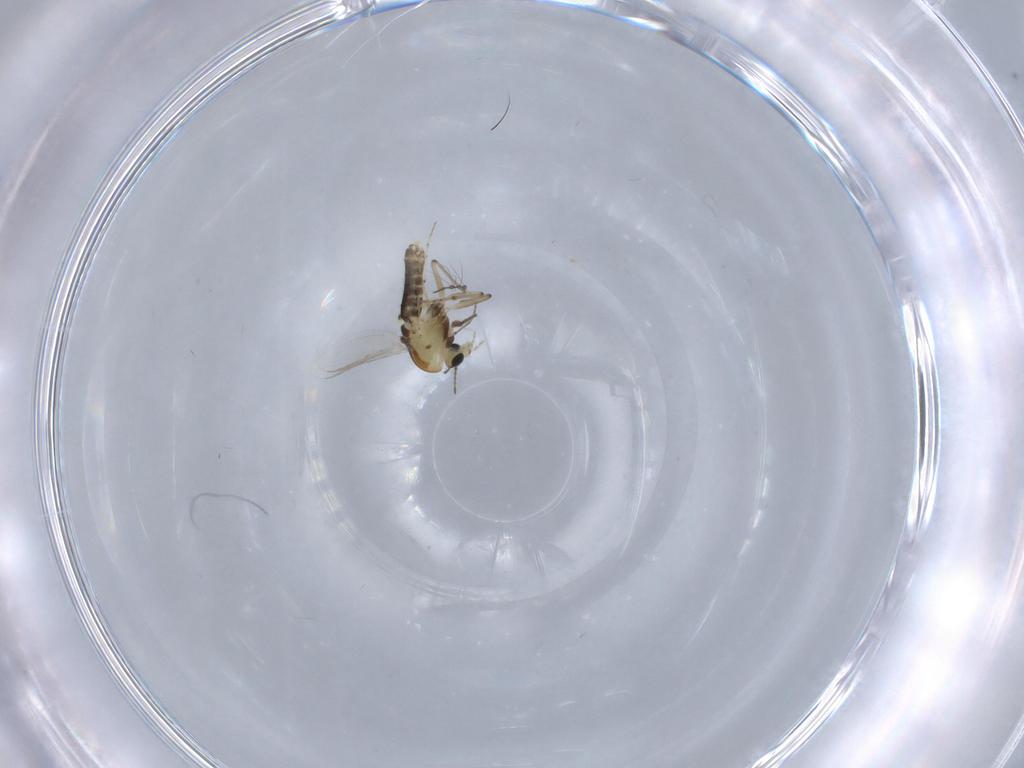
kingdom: Animalia
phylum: Arthropoda
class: Insecta
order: Diptera
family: Chironomidae
